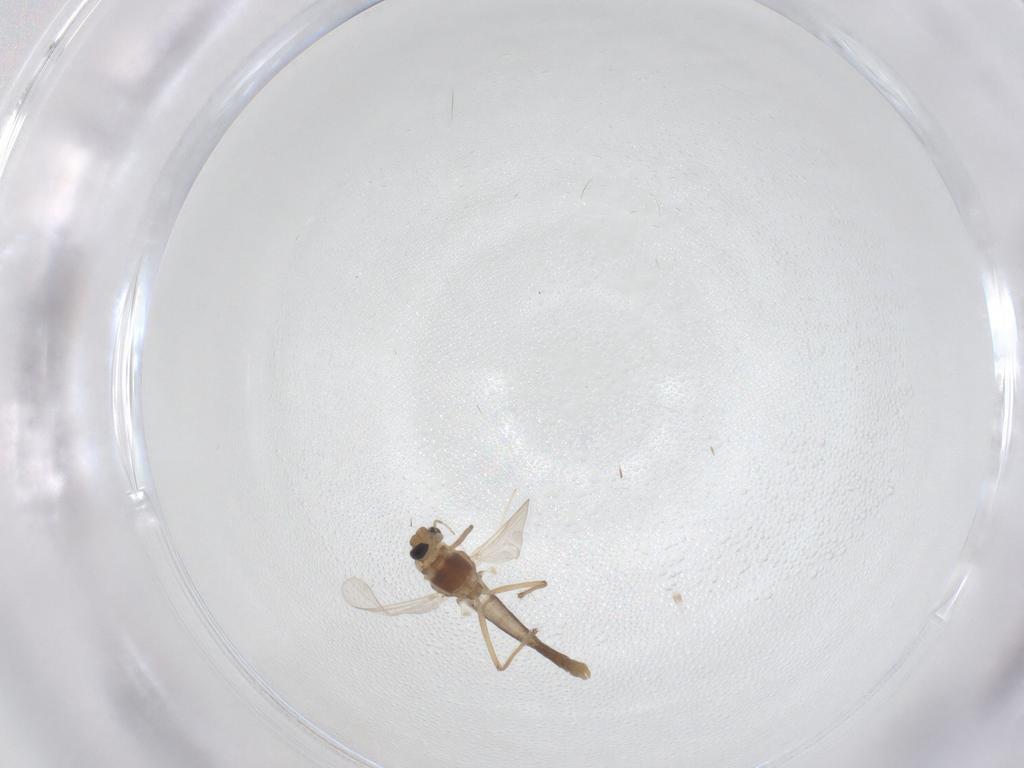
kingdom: Animalia
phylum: Arthropoda
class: Insecta
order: Diptera
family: Chironomidae
